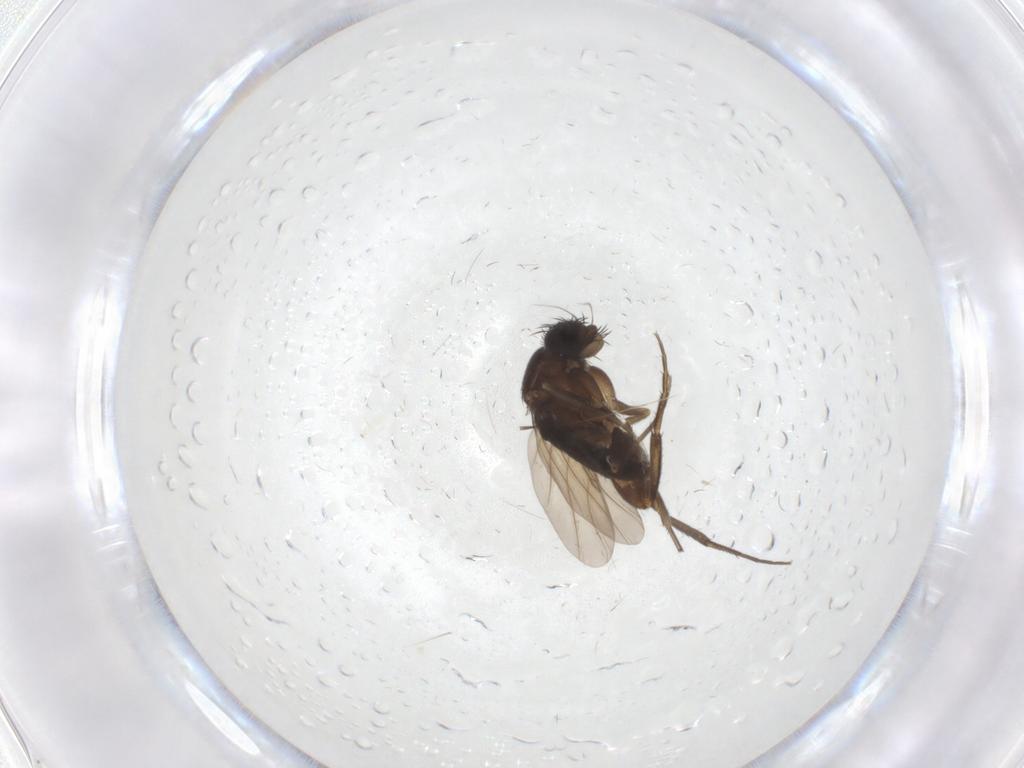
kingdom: Animalia
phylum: Arthropoda
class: Insecta
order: Diptera
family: Phoridae
